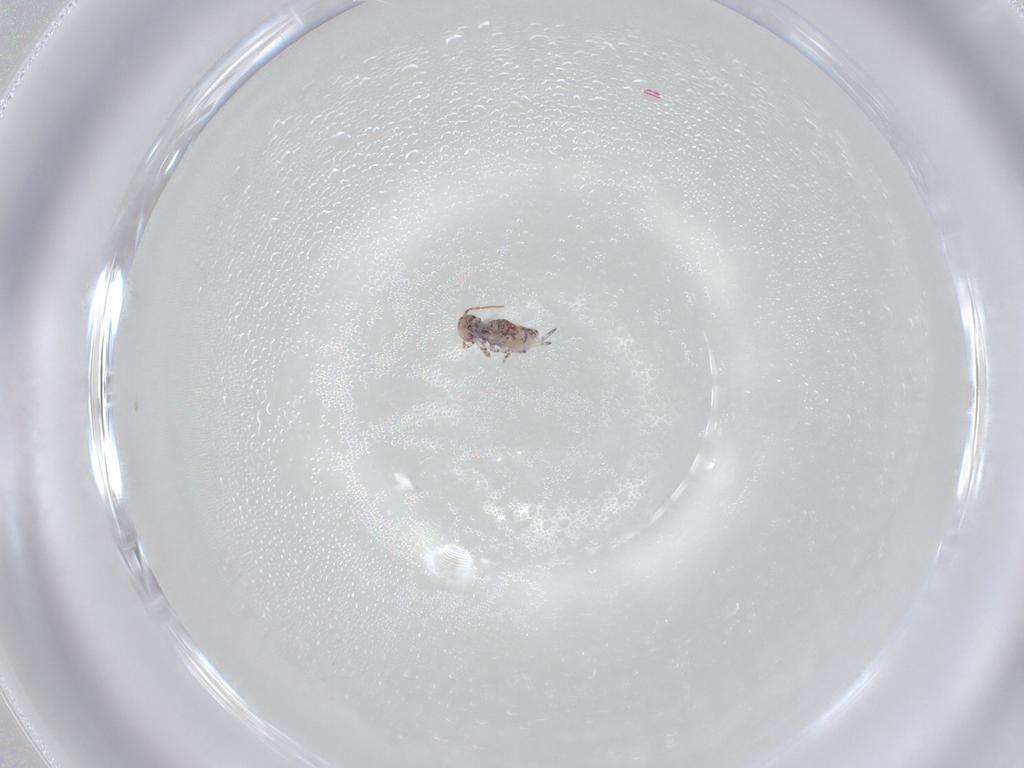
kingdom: Animalia
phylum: Arthropoda
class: Collembola
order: Symphypleona
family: Bourletiellidae
